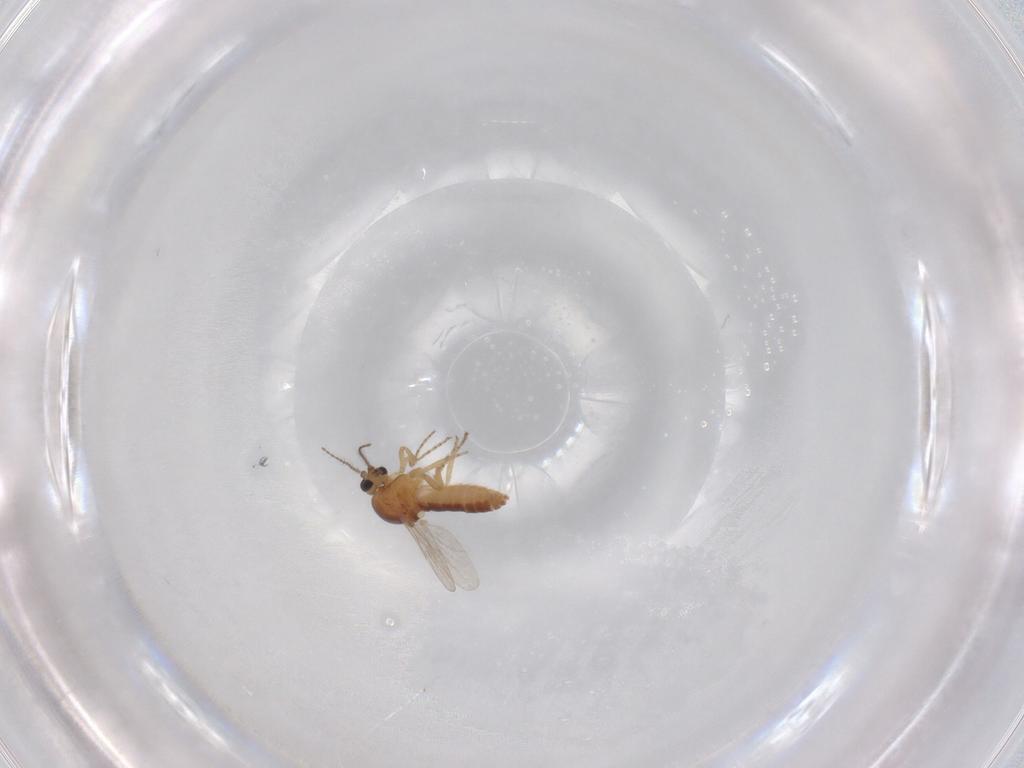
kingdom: Animalia
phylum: Arthropoda
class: Insecta
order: Diptera
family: Ceratopogonidae
